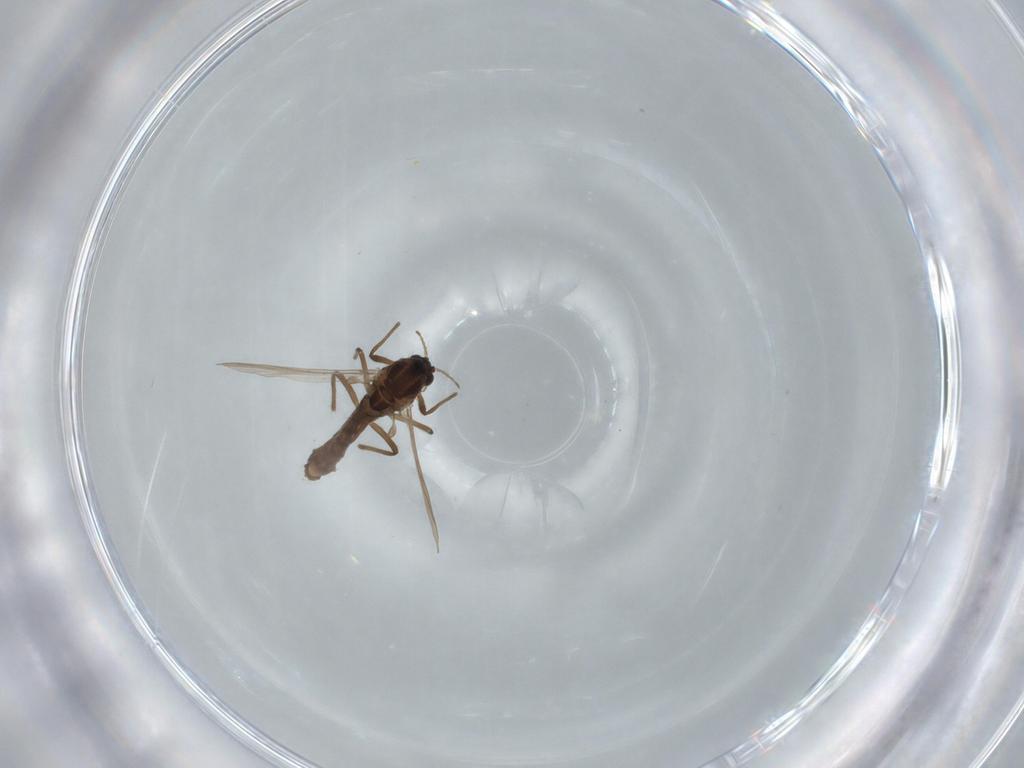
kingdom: Animalia
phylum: Arthropoda
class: Insecta
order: Diptera
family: Chironomidae
